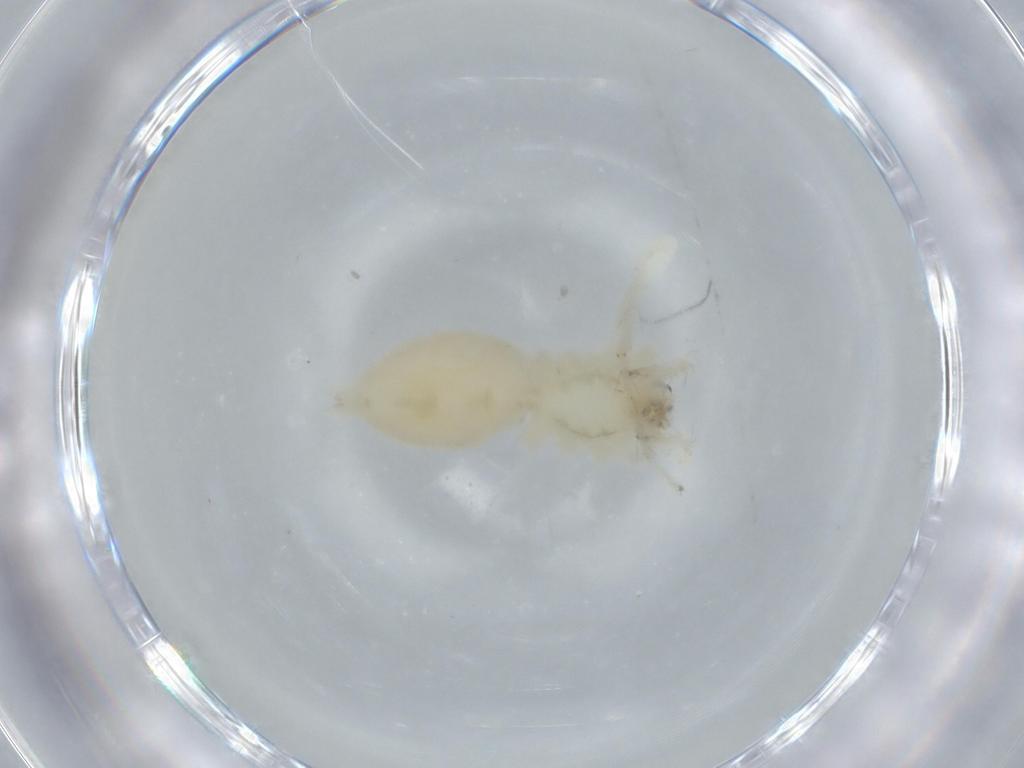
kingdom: Animalia
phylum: Arthropoda
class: Arachnida
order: Araneae
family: Anyphaenidae
